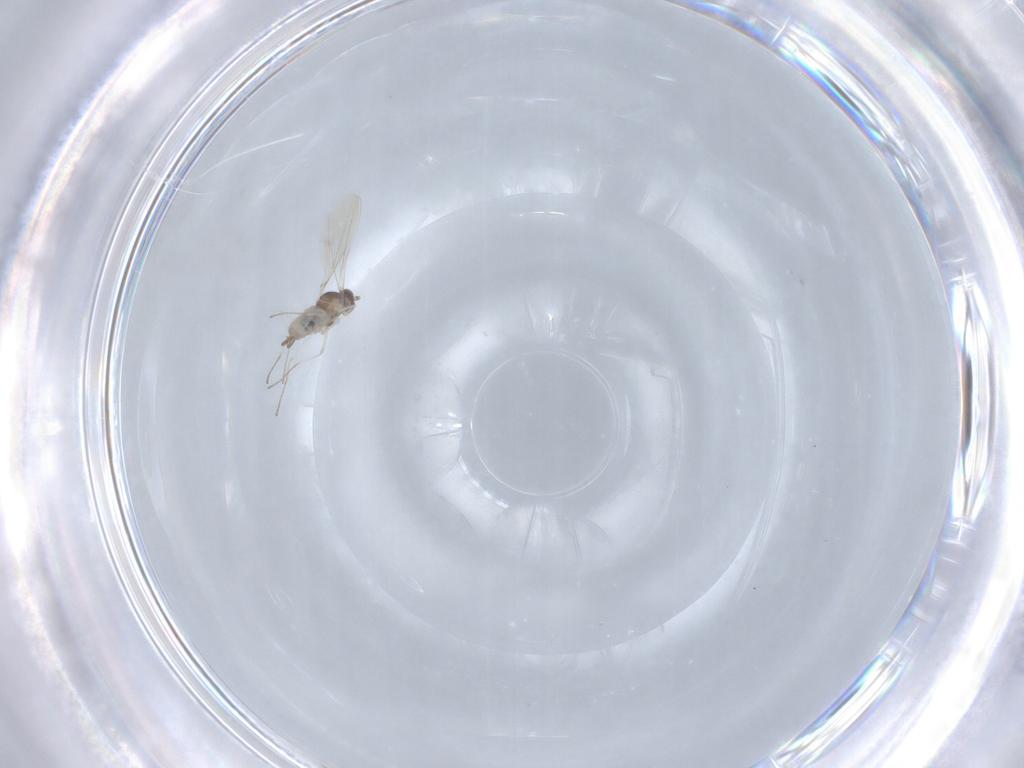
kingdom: Animalia
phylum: Arthropoda
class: Insecta
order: Diptera
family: Cecidomyiidae
